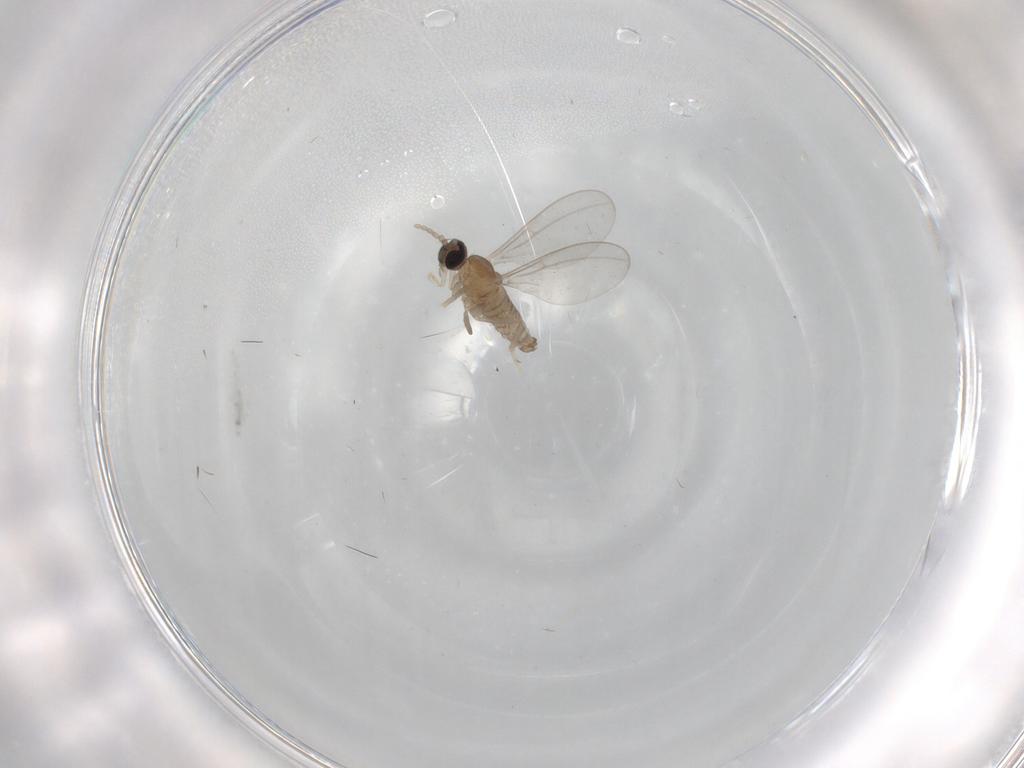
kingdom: Animalia
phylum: Arthropoda
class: Insecta
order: Diptera
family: Cecidomyiidae
